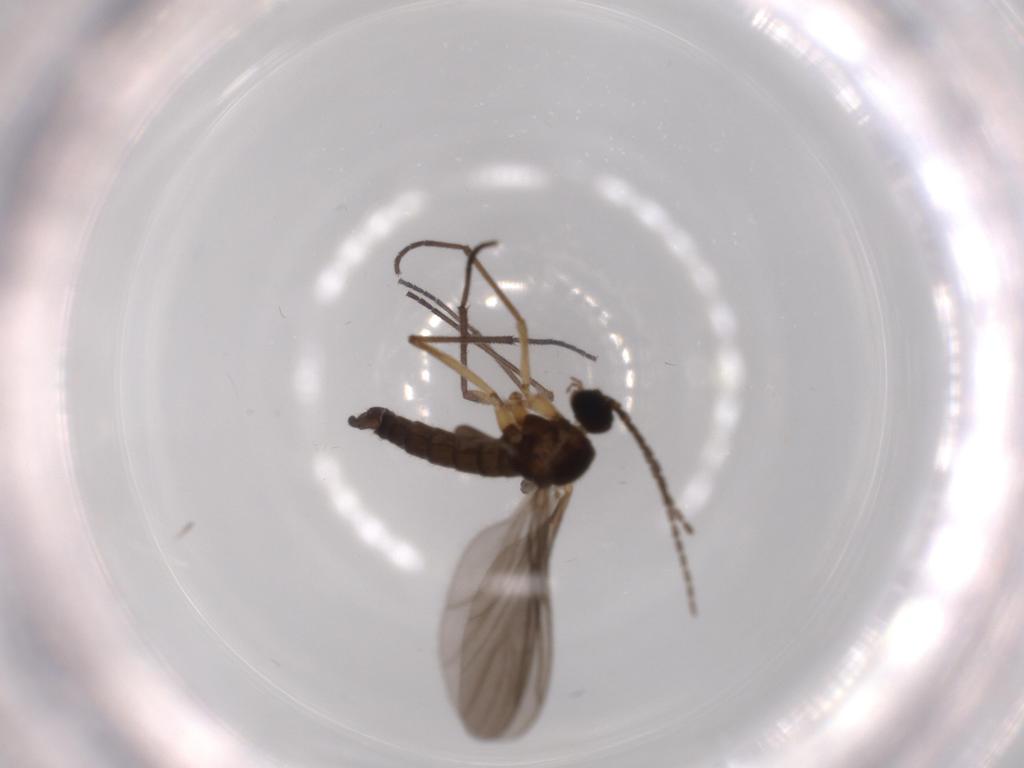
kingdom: Animalia
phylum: Arthropoda
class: Insecta
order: Diptera
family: Sciaridae
